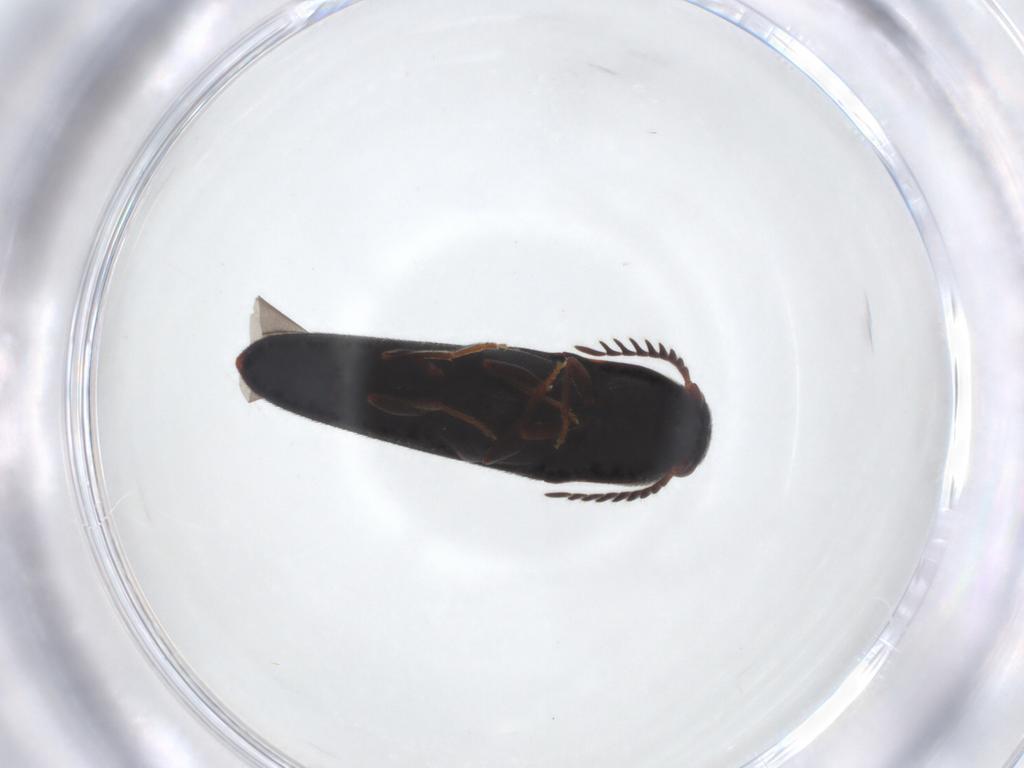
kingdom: Animalia
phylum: Arthropoda
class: Insecta
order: Coleoptera
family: Eucnemidae
